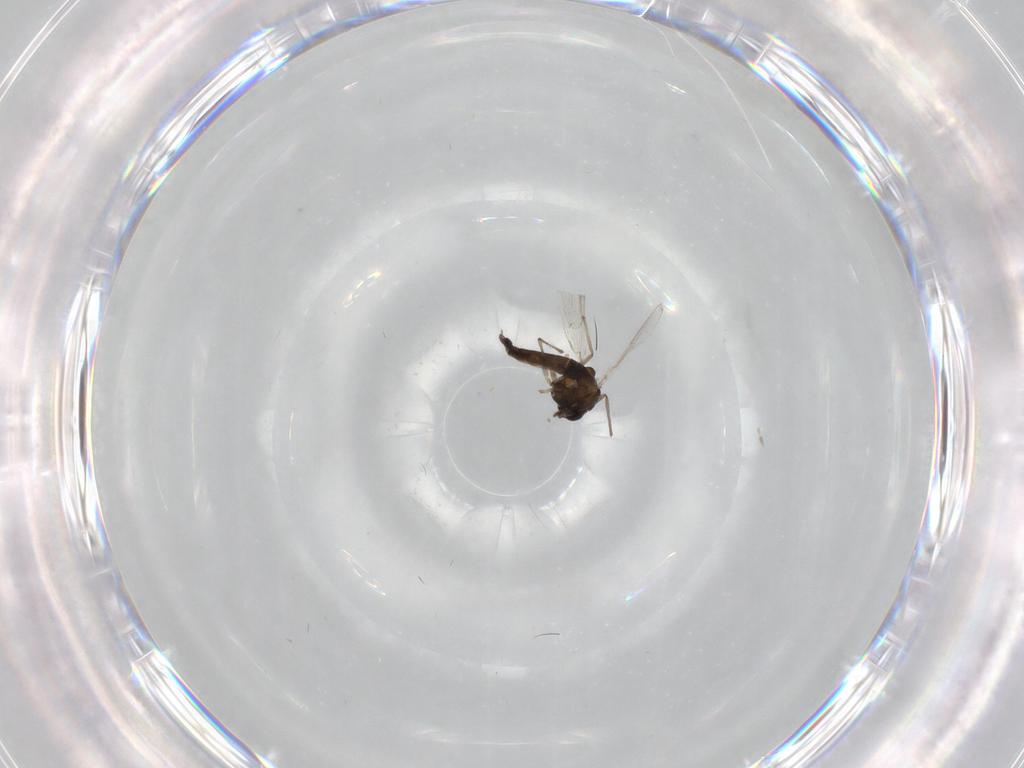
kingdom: Animalia
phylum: Arthropoda
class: Insecta
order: Diptera
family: Chironomidae
